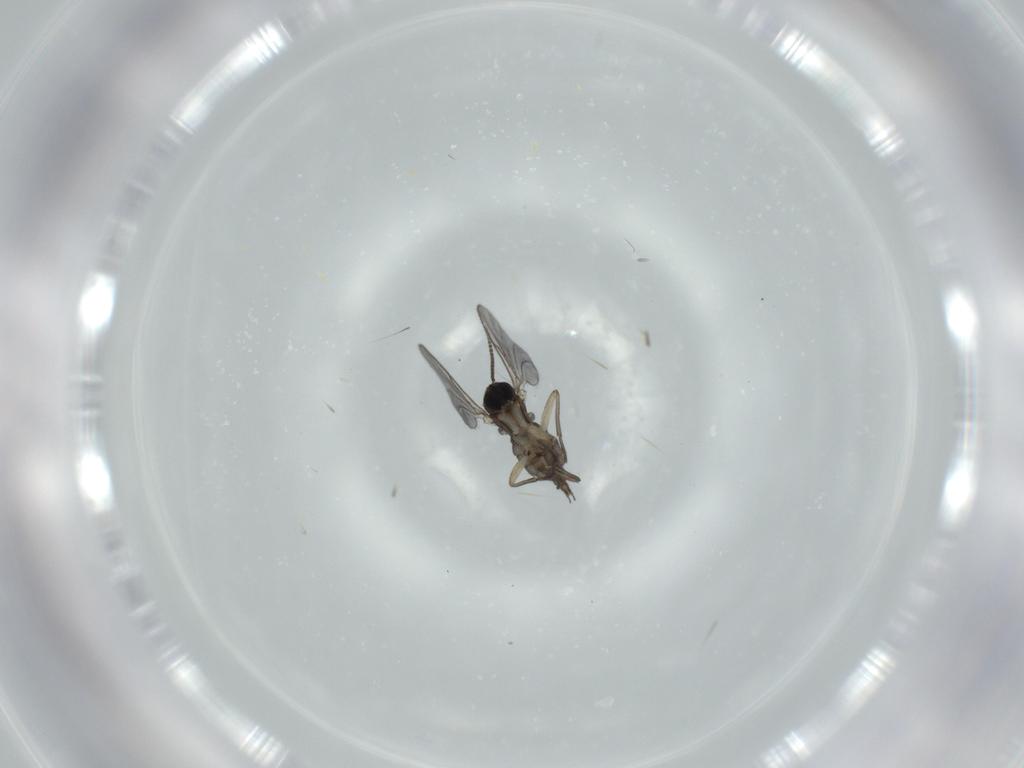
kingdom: Animalia
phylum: Arthropoda
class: Insecta
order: Diptera
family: Sciaridae
